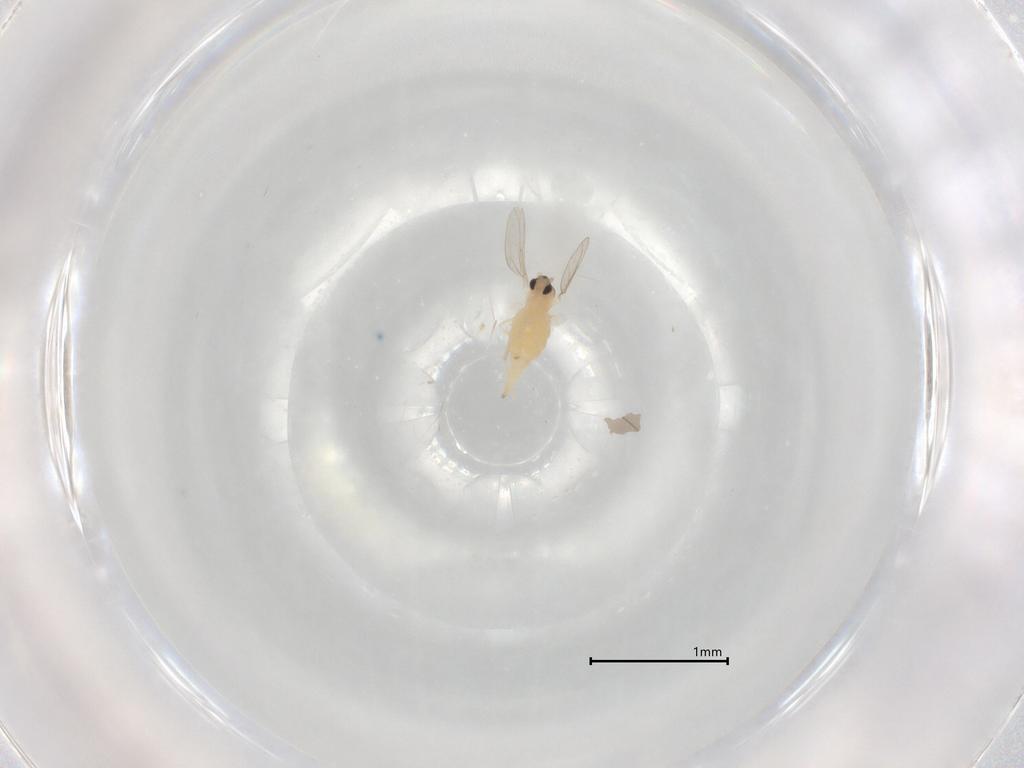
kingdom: Animalia
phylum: Arthropoda
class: Insecta
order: Diptera
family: Cecidomyiidae
